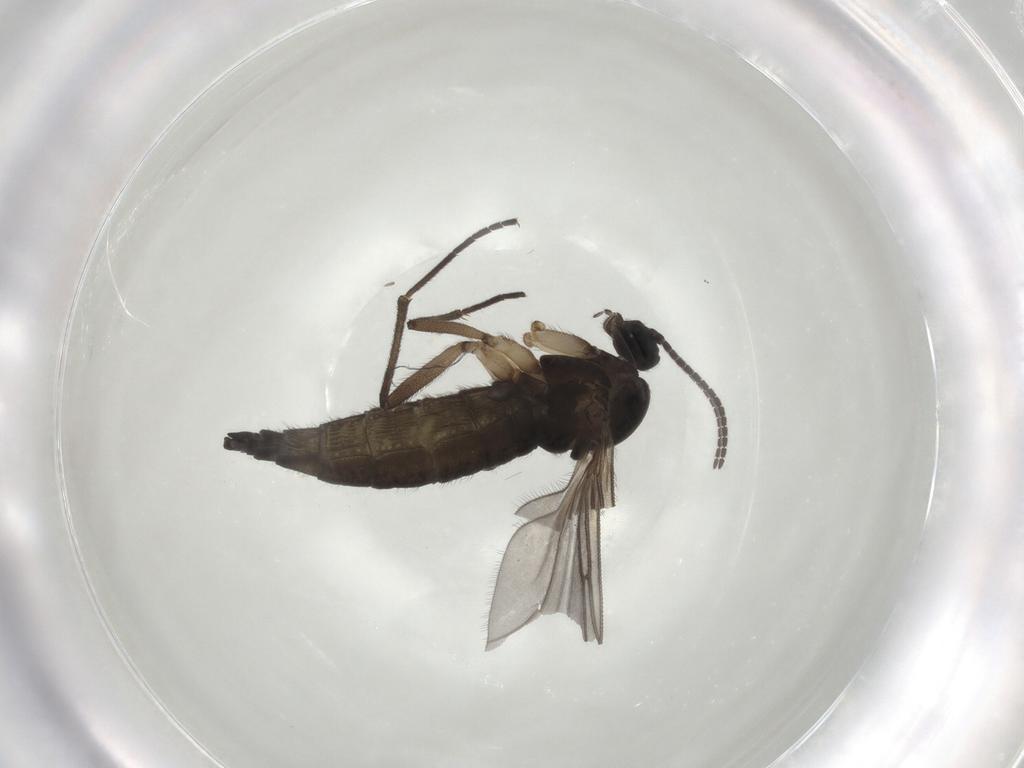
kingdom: Animalia
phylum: Arthropoda
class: Insecta
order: Diptera
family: Sciaridae
